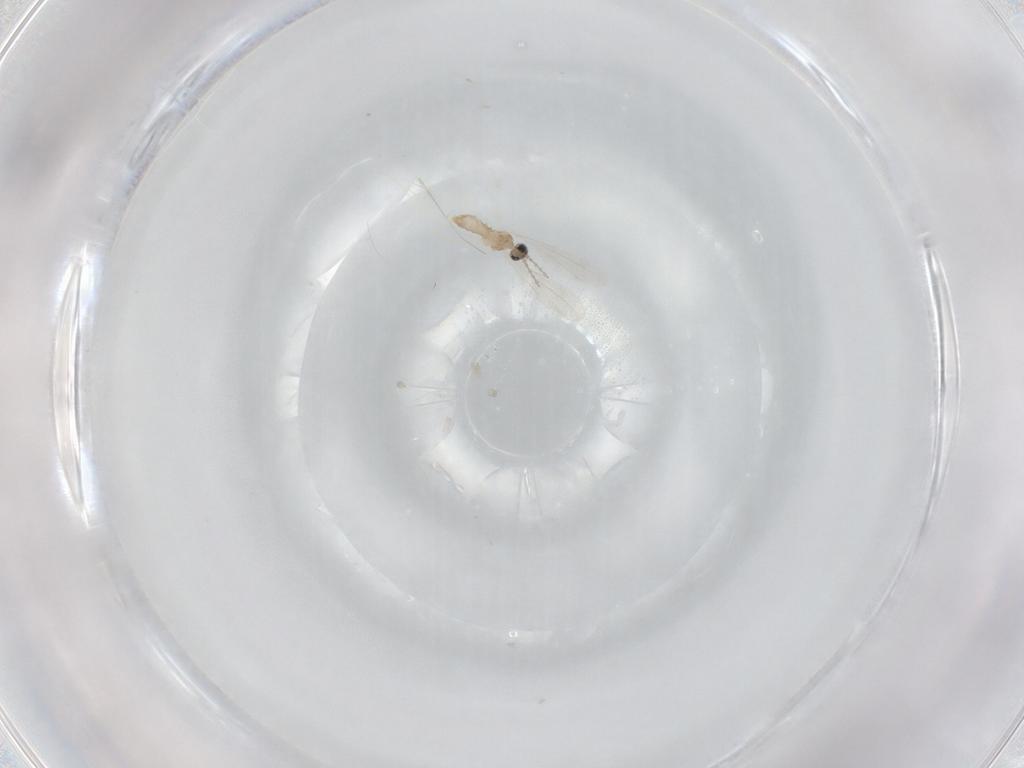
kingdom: Animalia
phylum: Arthropoda
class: Insecta
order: Diptera
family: Cecidomyiidae
